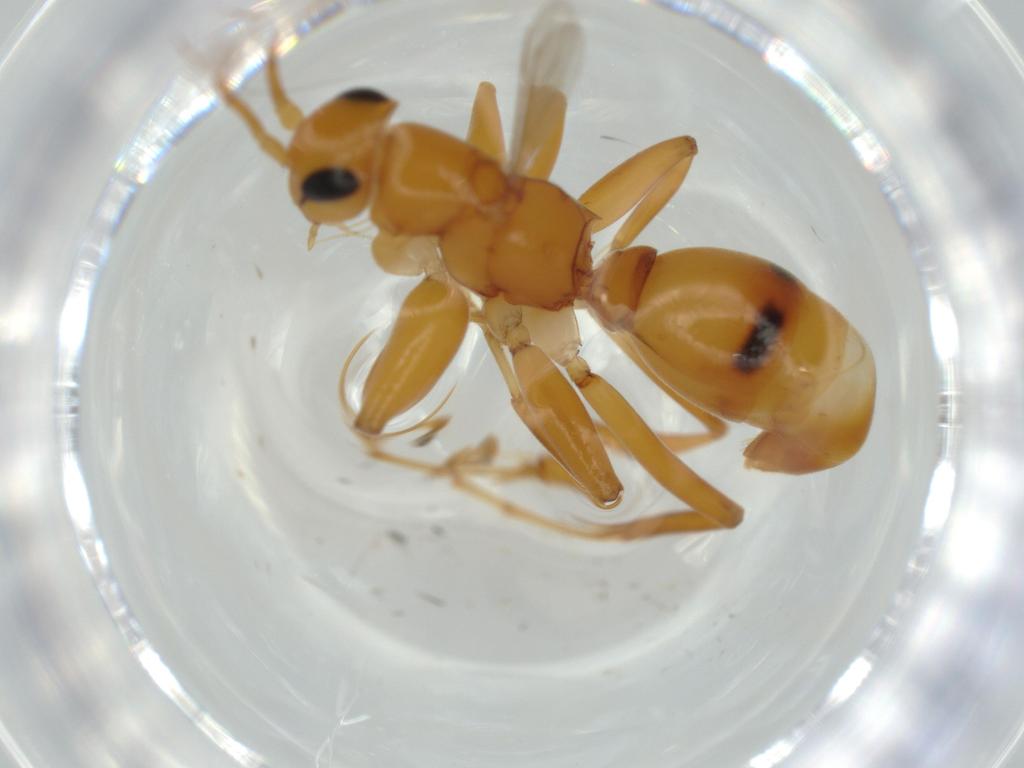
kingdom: Animalia
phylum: Arthropoda
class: Insecta
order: Hymenoptera
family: Rhopalosomatidae
